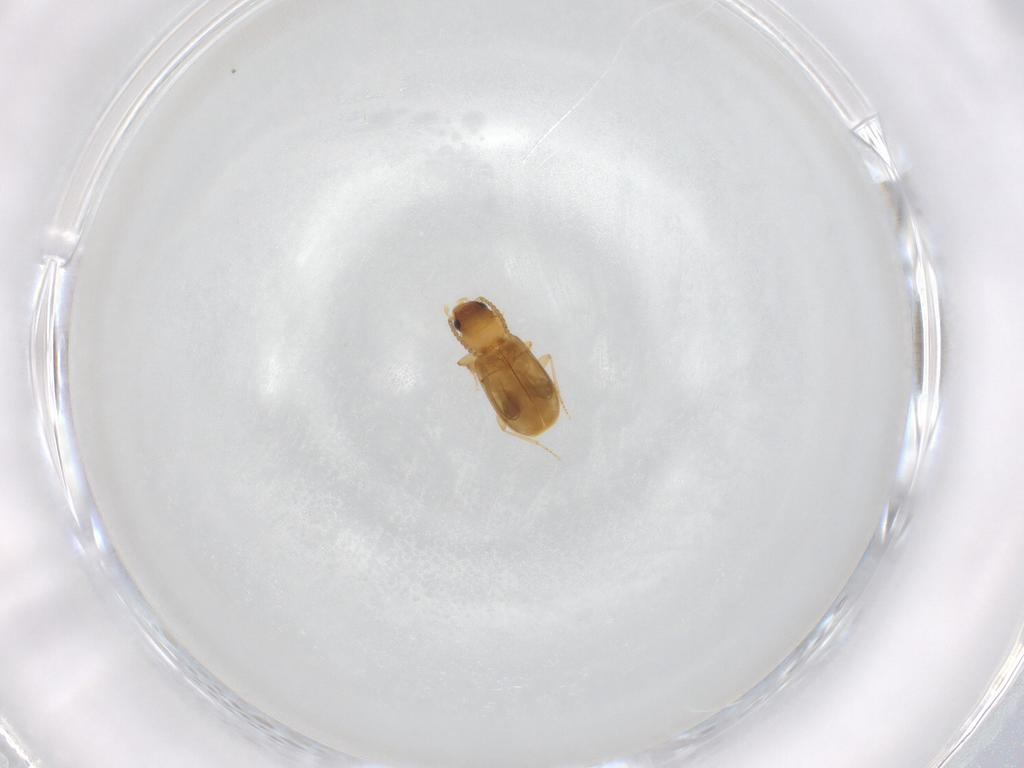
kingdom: Animalia
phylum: Arthropoda
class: Insecta
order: Coleoptera
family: Carabidae
